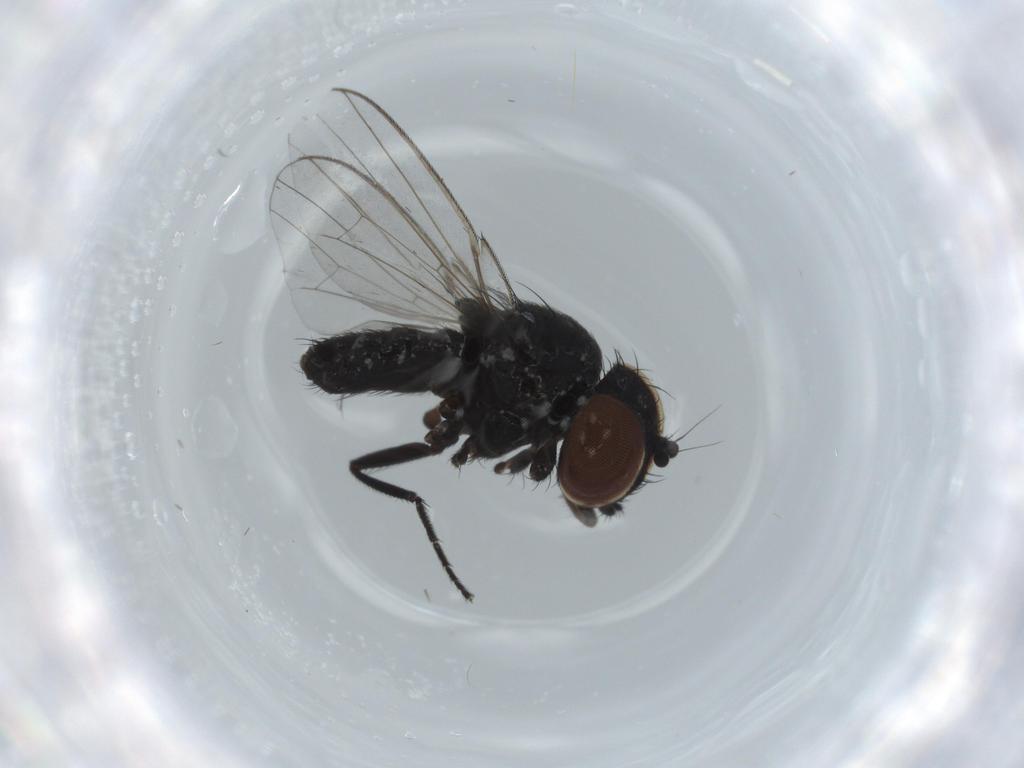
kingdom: Animalia
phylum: Arthropoda
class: Insecta
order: Diptera
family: Milichiidae
